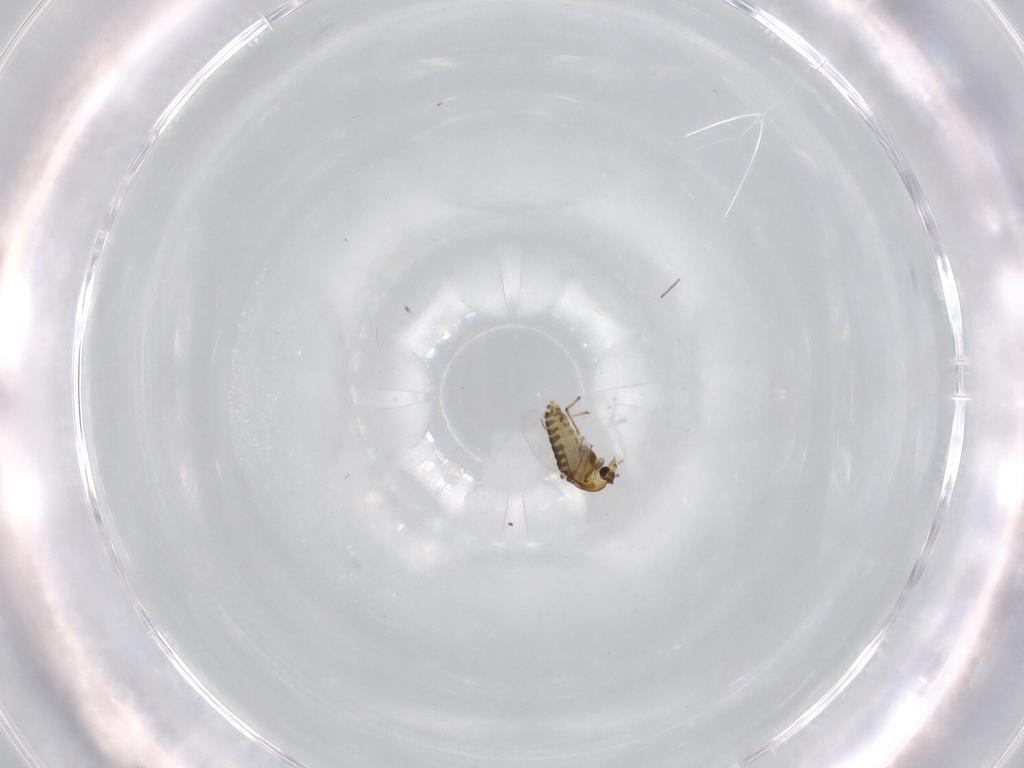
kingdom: Animalia
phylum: Arthropoda
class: Insecta
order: Diptera
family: Chironomidae
